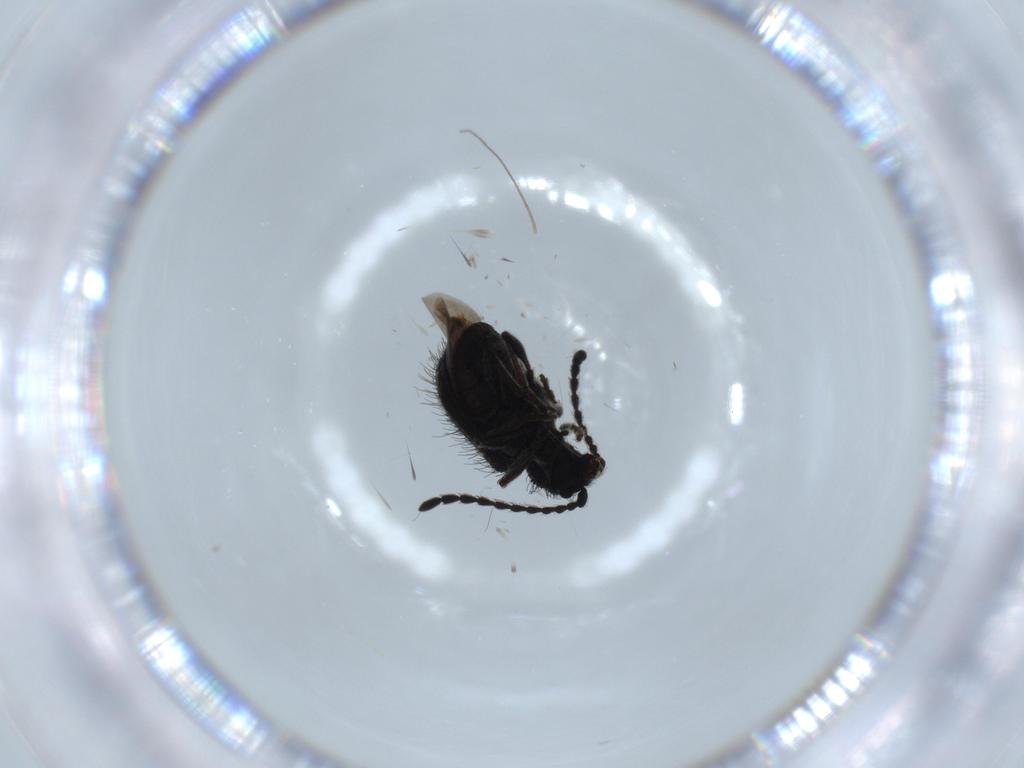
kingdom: Animalia
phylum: Arthropoda
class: Insecta
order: Coleoptera
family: Chrysomelidae
